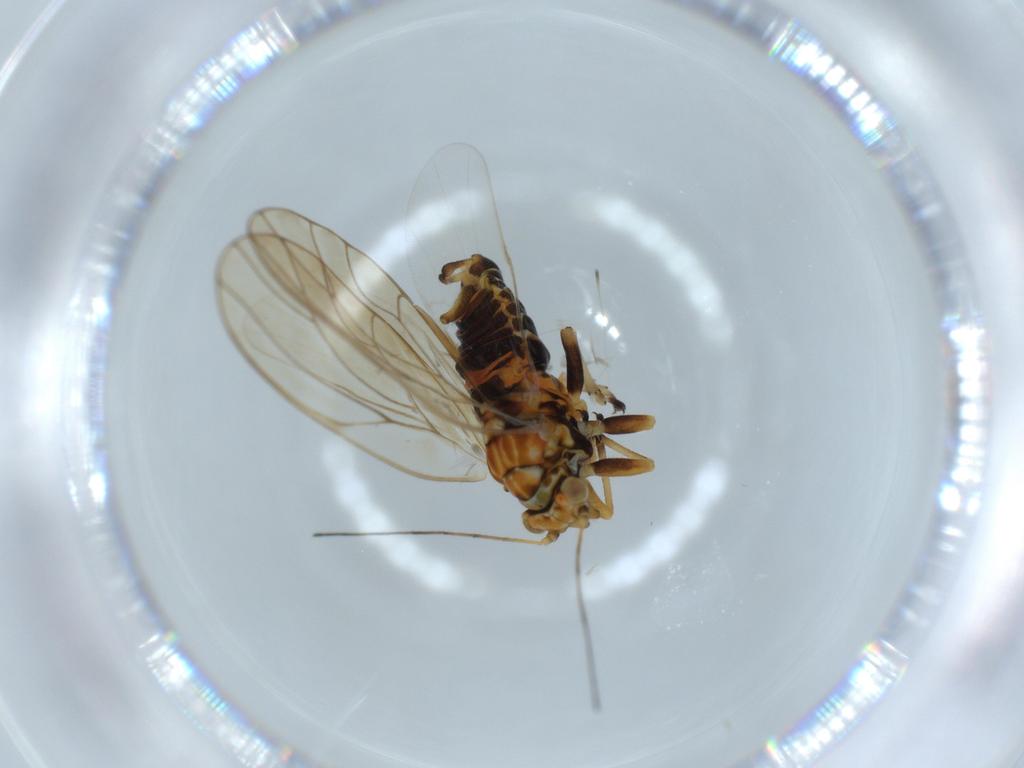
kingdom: Animalia
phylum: Arthropoda
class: Insecta
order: Hemiptera
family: Psyllidae
